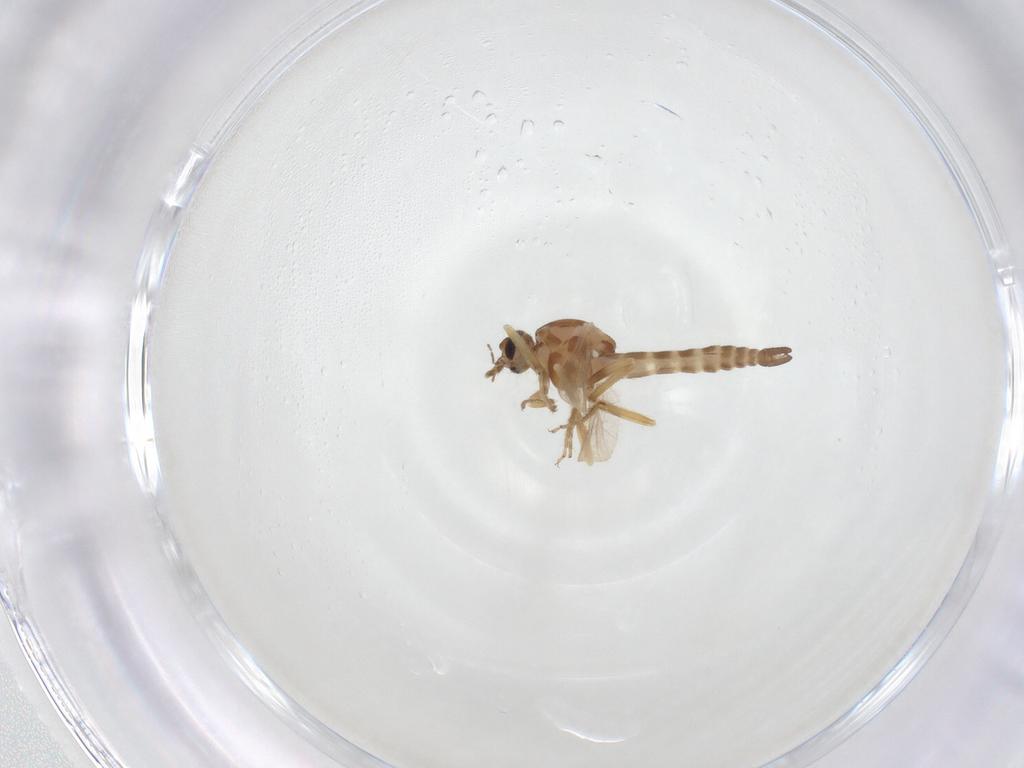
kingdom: Animalia
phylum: Arthropoda
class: Insecta
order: Diptera
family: Ceratopogonidae
